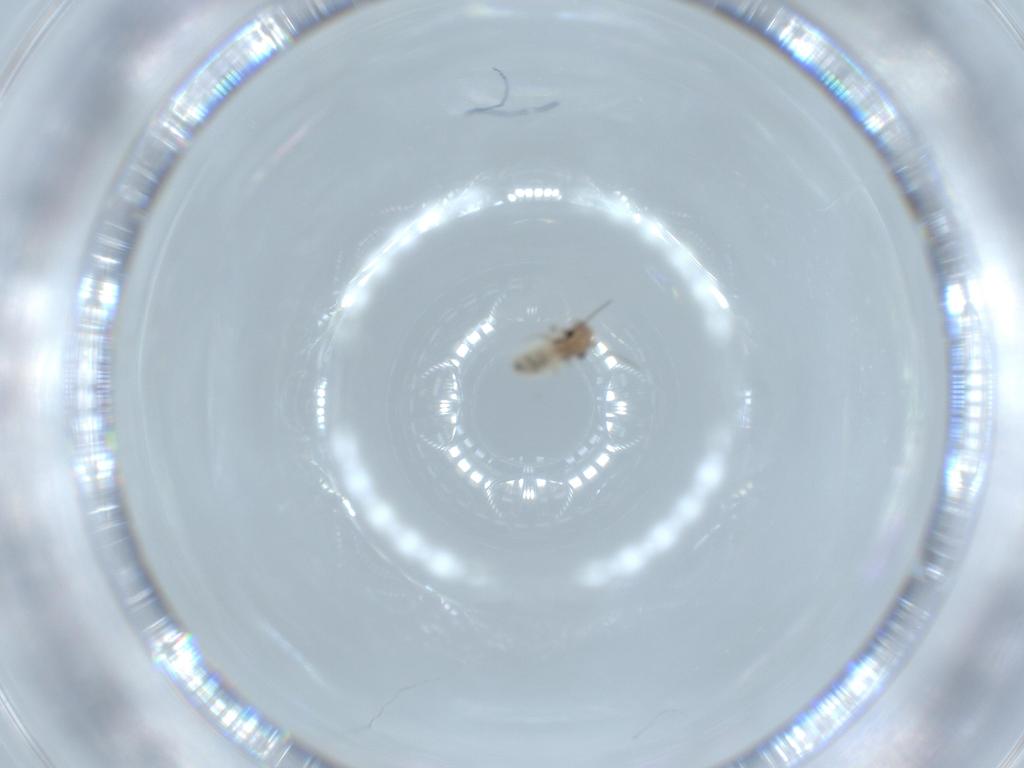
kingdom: Animalia
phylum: Arthropoda
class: Insecta
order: Psocodea
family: Lepidopsocidae
